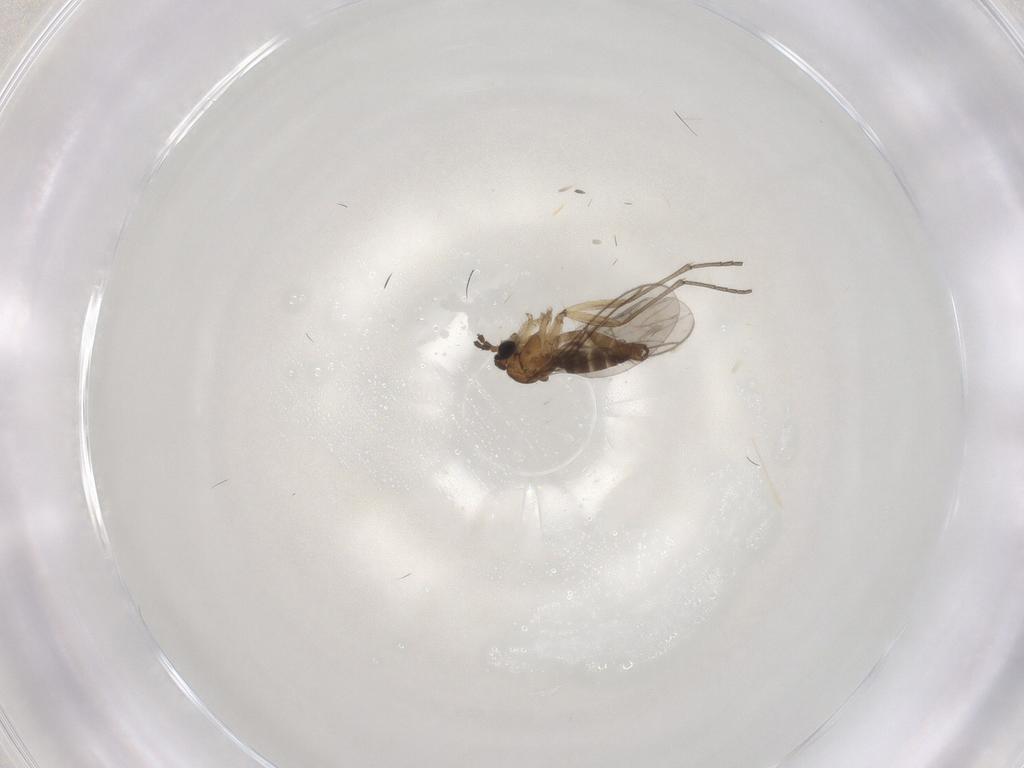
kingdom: Animalia
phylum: Arthropoda
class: Insecta
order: Diptera
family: Sciaridae
